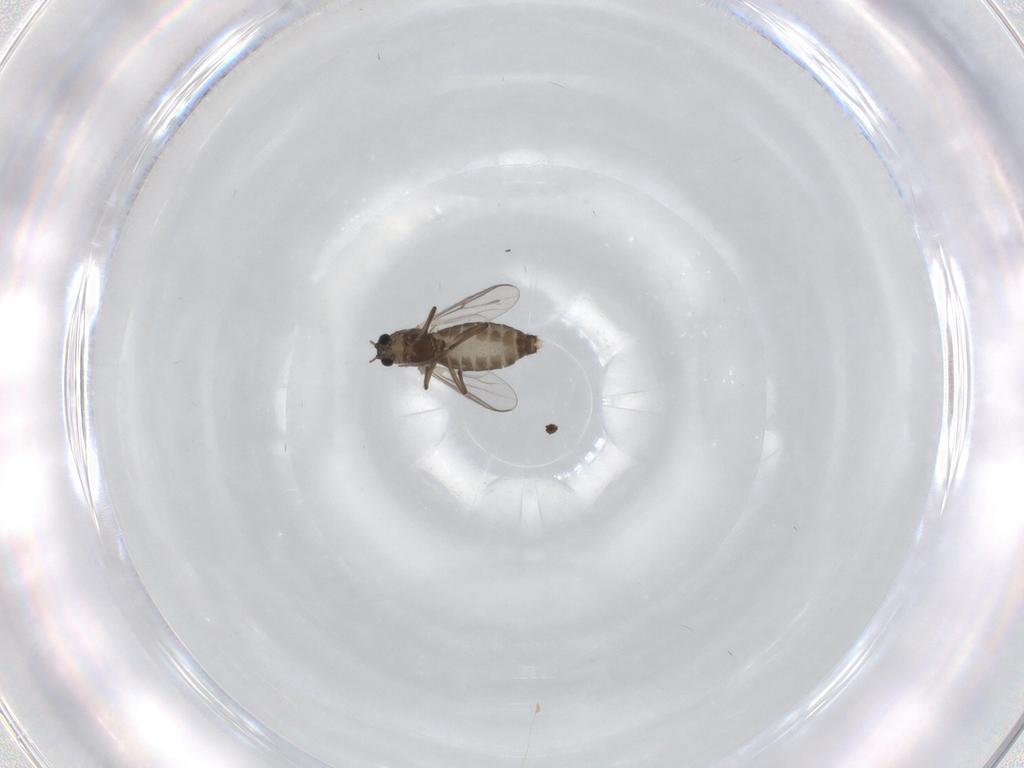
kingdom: Animalia
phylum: Arthropoda
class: Insecta
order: Diptera
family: Chironomidae
